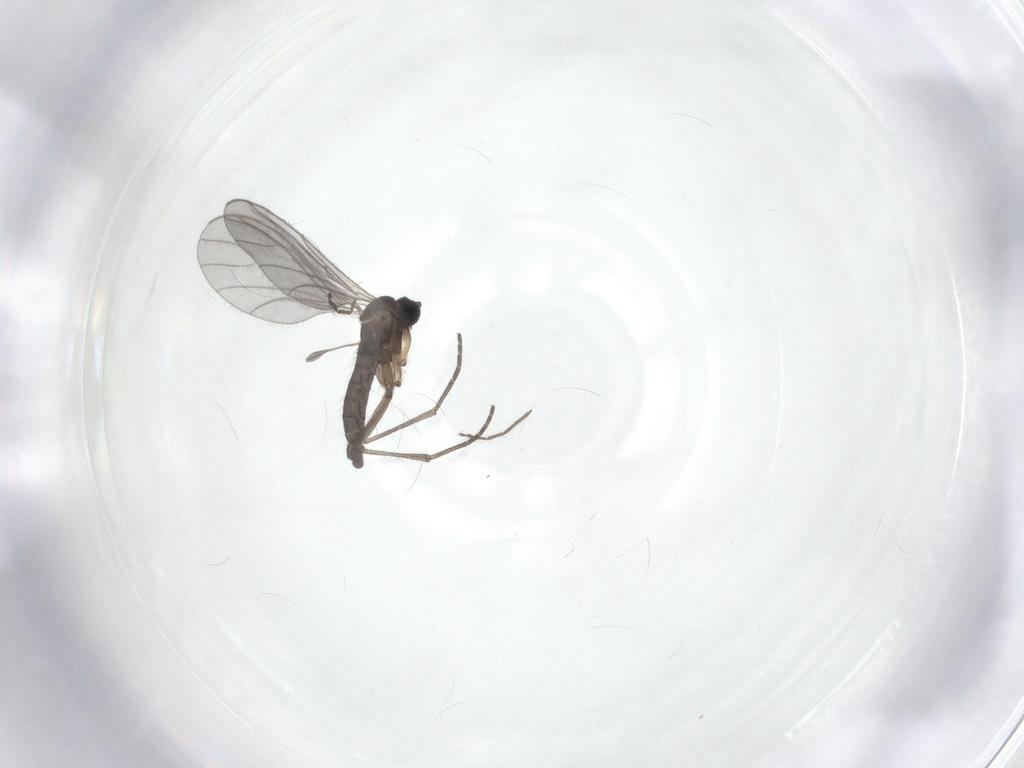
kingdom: Animalia
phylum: Arthropoda
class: Insecta
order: Diptera
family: Sciaridae
